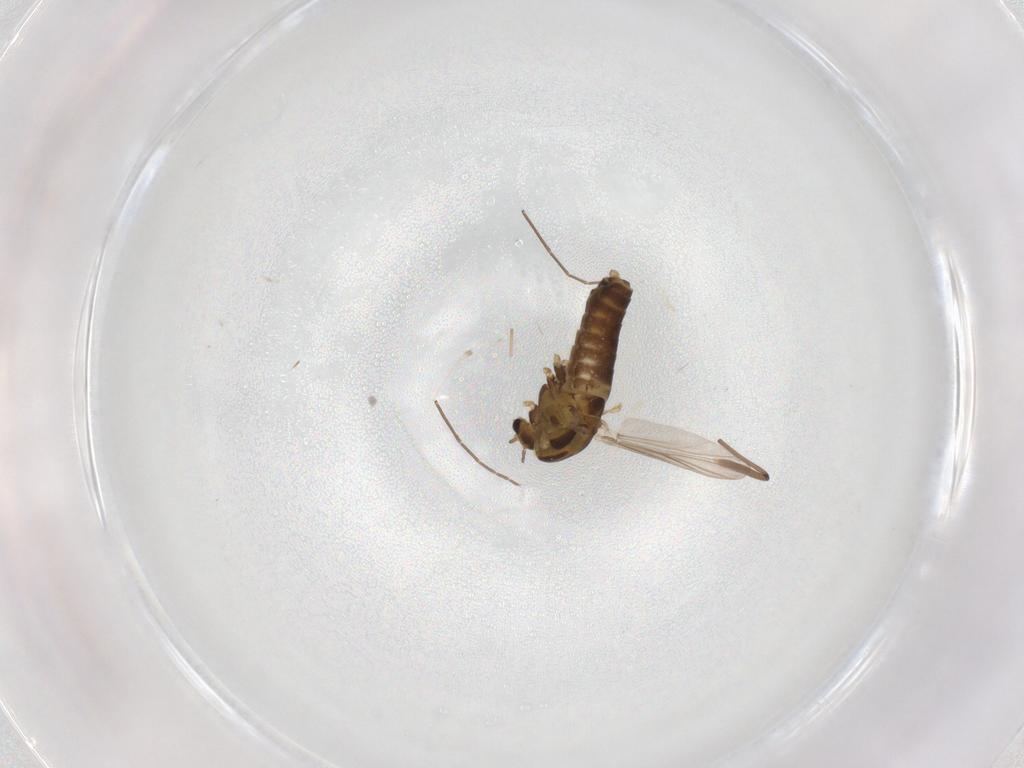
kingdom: Animalia
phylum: Arthropoda
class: Insecta
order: Diptera
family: Chironomidae
